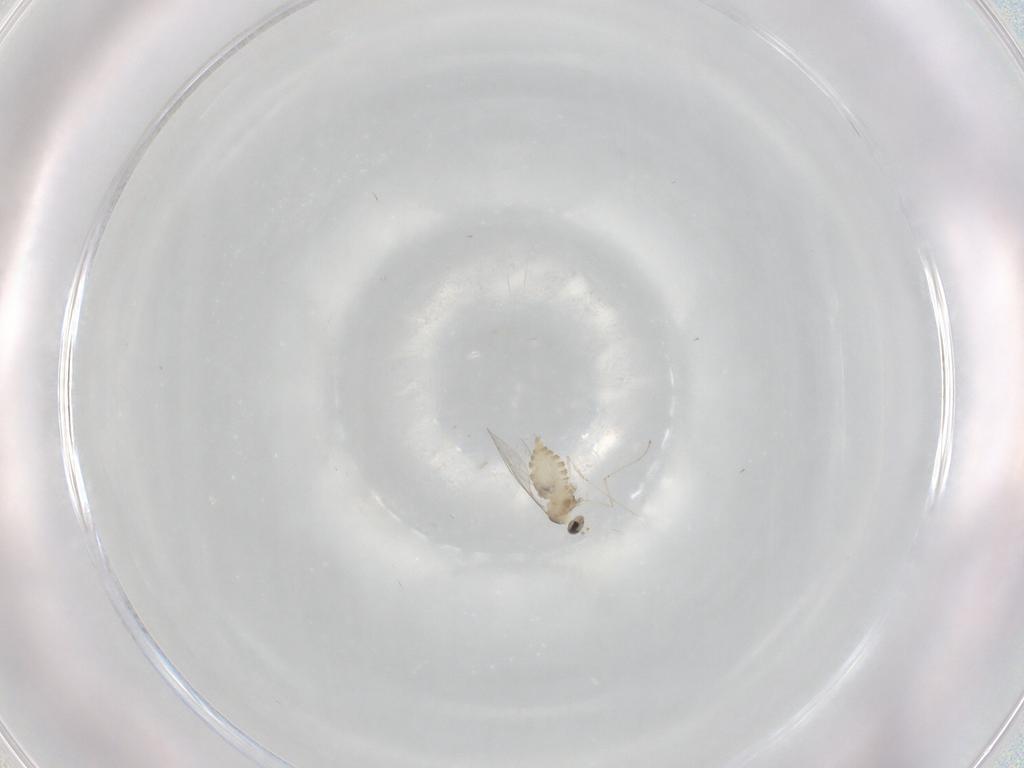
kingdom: Animalia
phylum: Arthropoda
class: Insecta
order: Diptera
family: Cecidomyiidae
